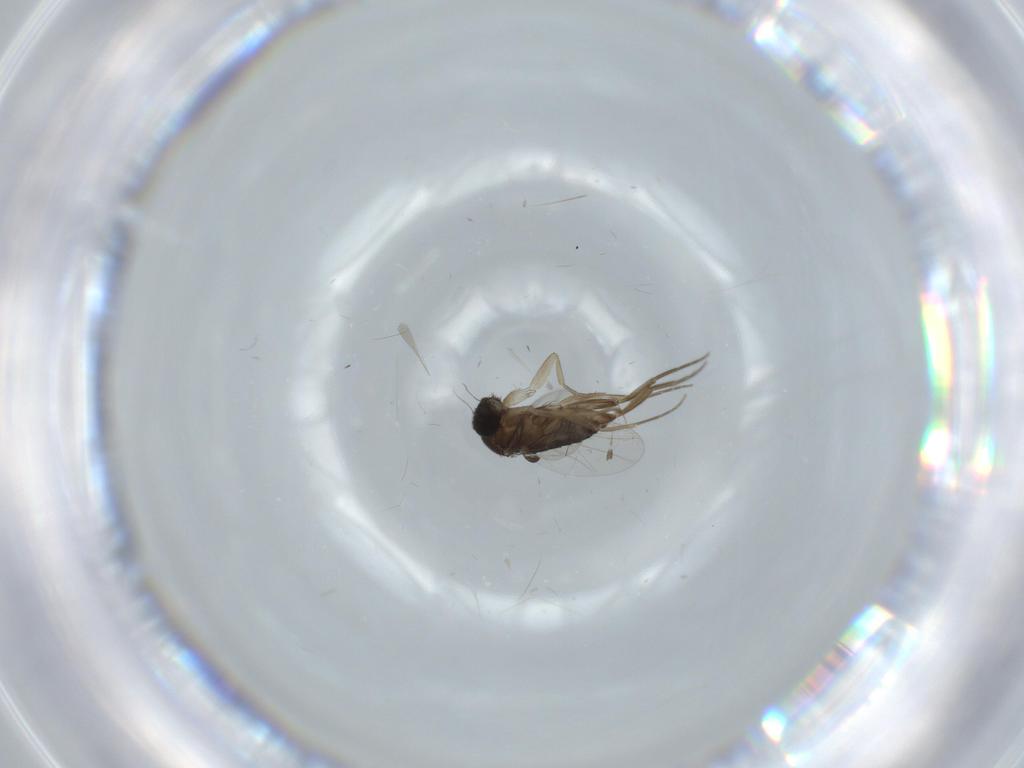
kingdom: Animalia
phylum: Arthropoda
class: Insecta
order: Diptera
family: Phoridae
